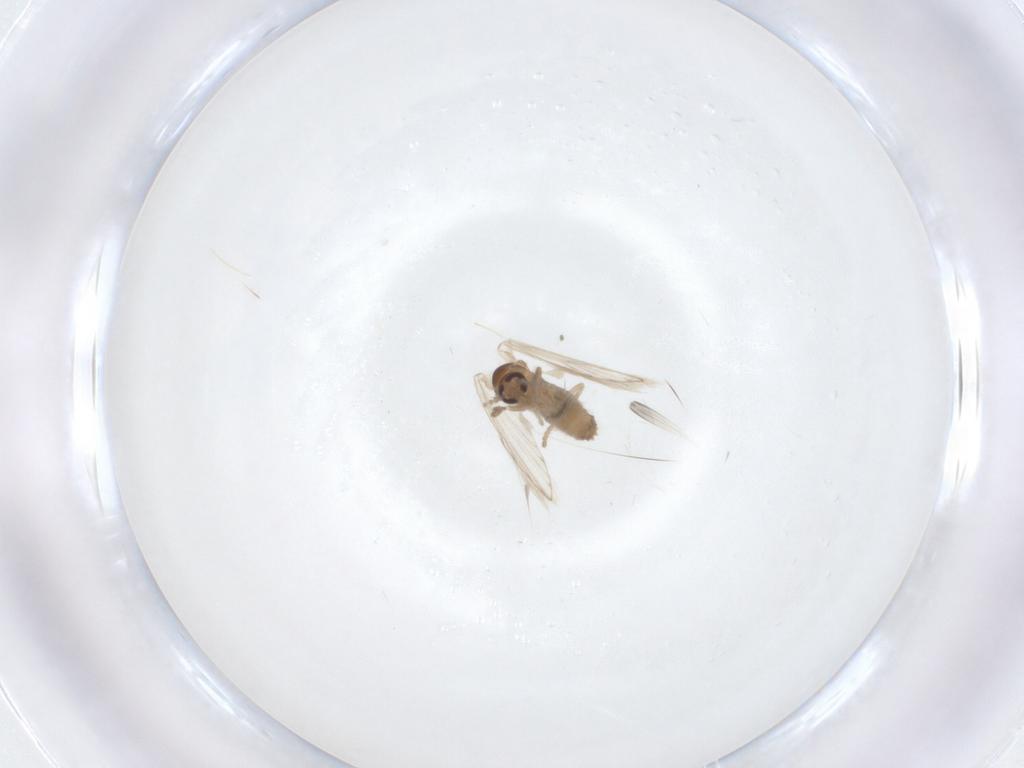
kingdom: Animalia
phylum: Arthropoda
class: Insecta
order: Diptera
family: Psychodidae
